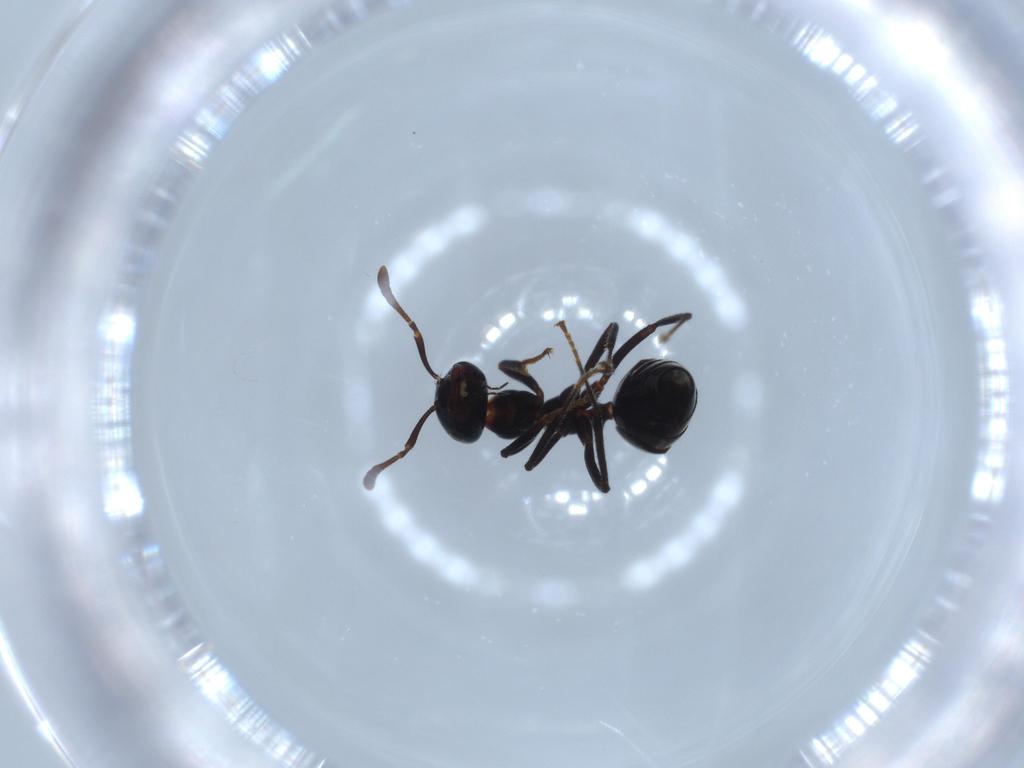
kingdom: Animalia
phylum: Arthropoda
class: Insecta
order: Hymenoptera
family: Formicidae
